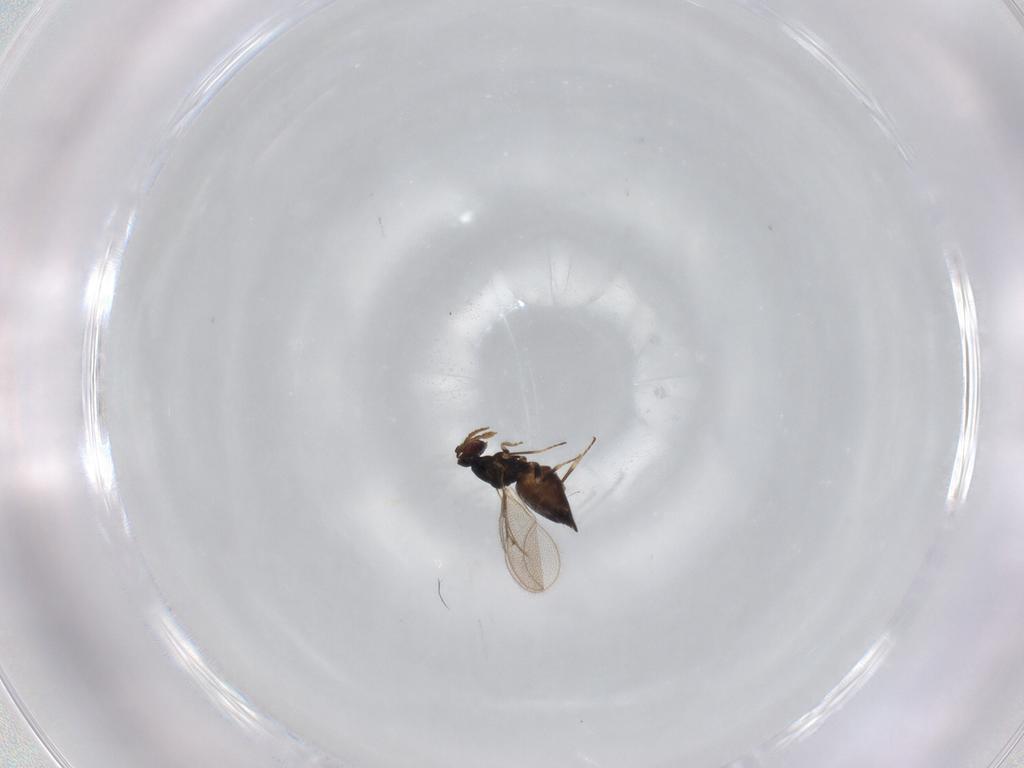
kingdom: Animalia
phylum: Arthropoda
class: Insecta
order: Hymenoptera
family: Eulophidae
